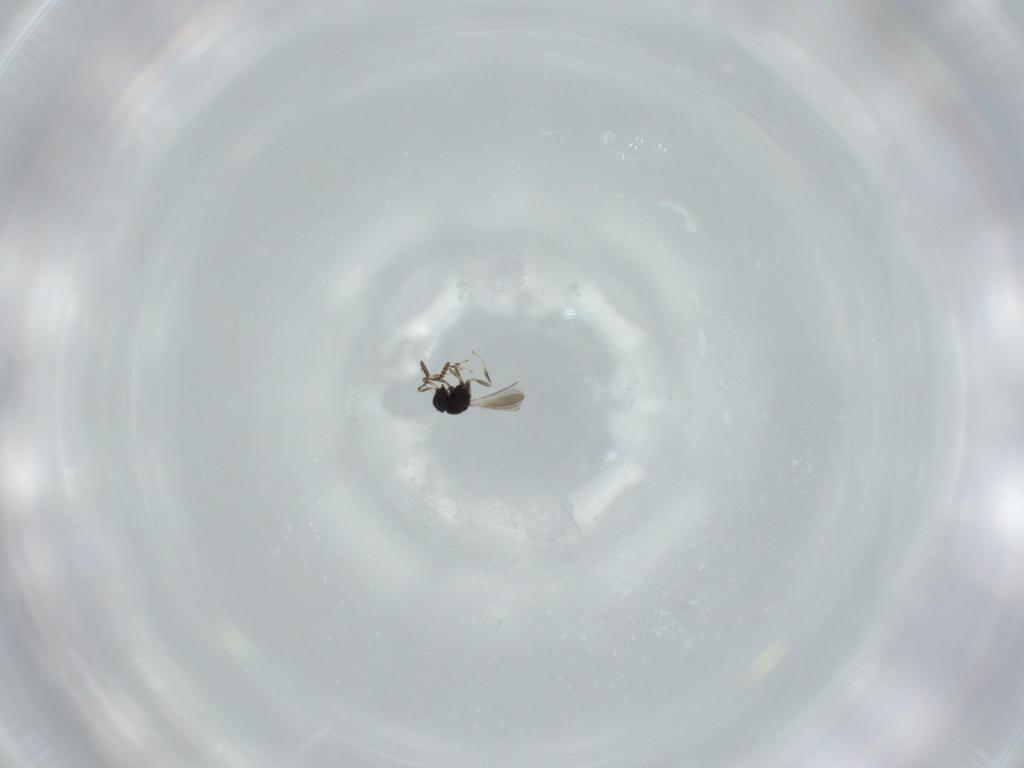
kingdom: Animalia
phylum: Arthropoda
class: Insecta
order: Hymenoptera
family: Scelionidae
